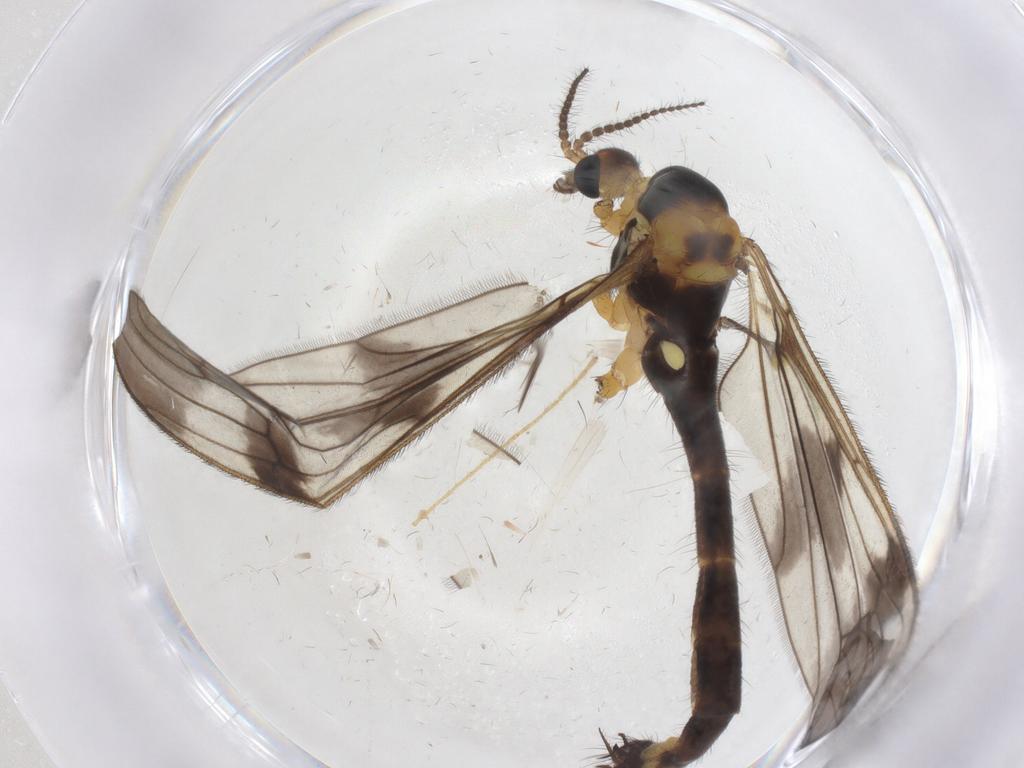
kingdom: Animalia
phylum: Arthropoda
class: Insecta
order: Diptera
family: Limoniidae
